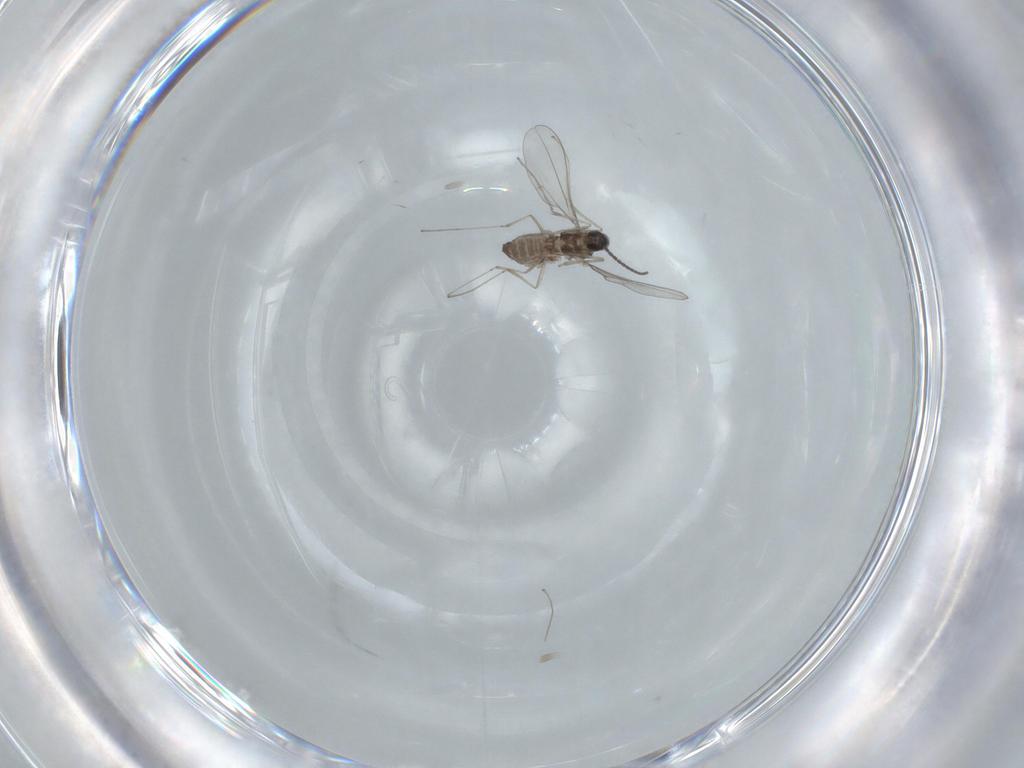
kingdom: Animalia
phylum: Arthropoda
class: Insecta
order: Diptera
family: Cecidomyiidae
